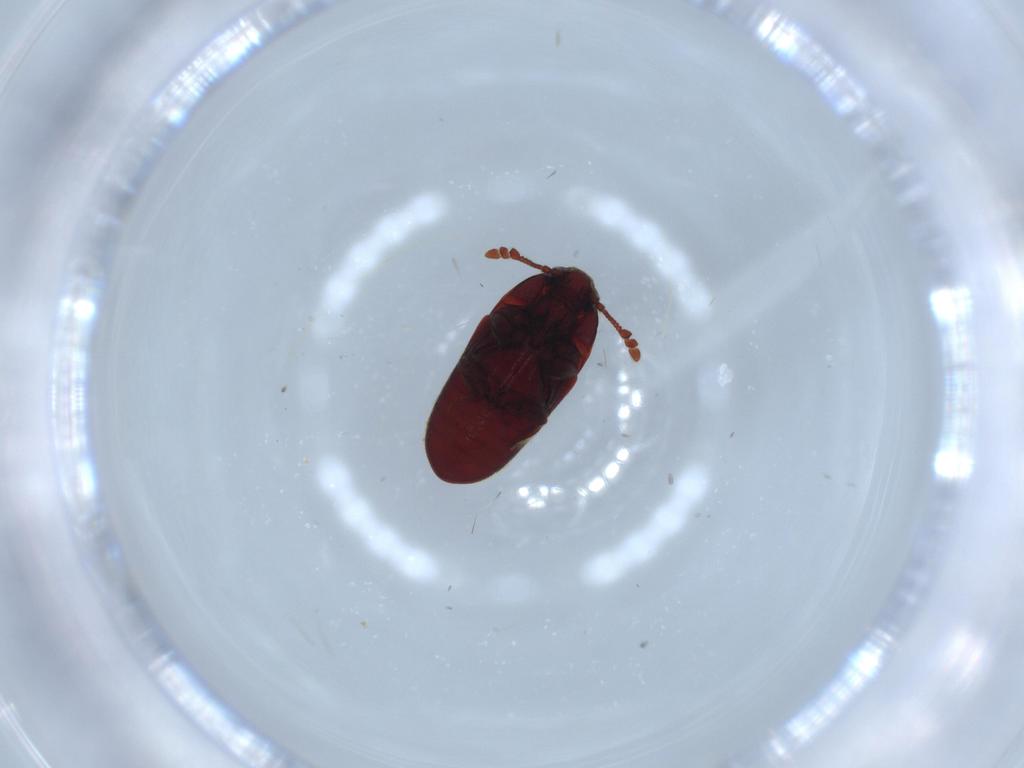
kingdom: Animalia
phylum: Arthropoda
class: Insecta
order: Coleoptera
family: Throscidae
